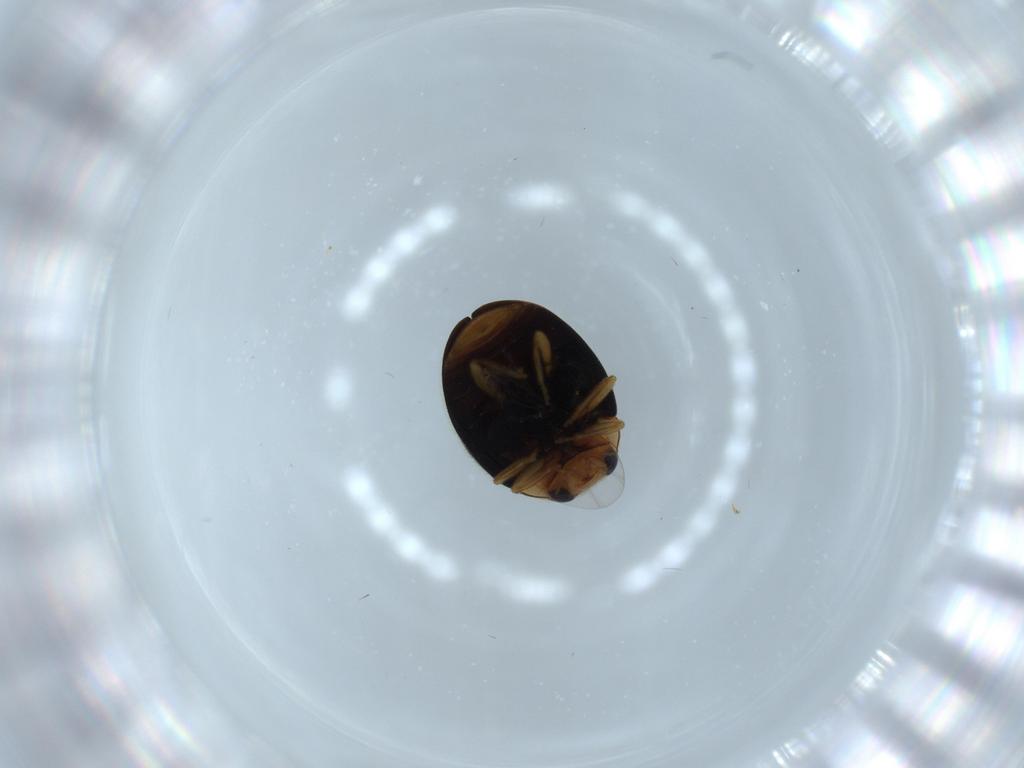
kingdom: Animalia
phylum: Arthropoda
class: Insecta
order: Coleoptera
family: Coccinellidae
